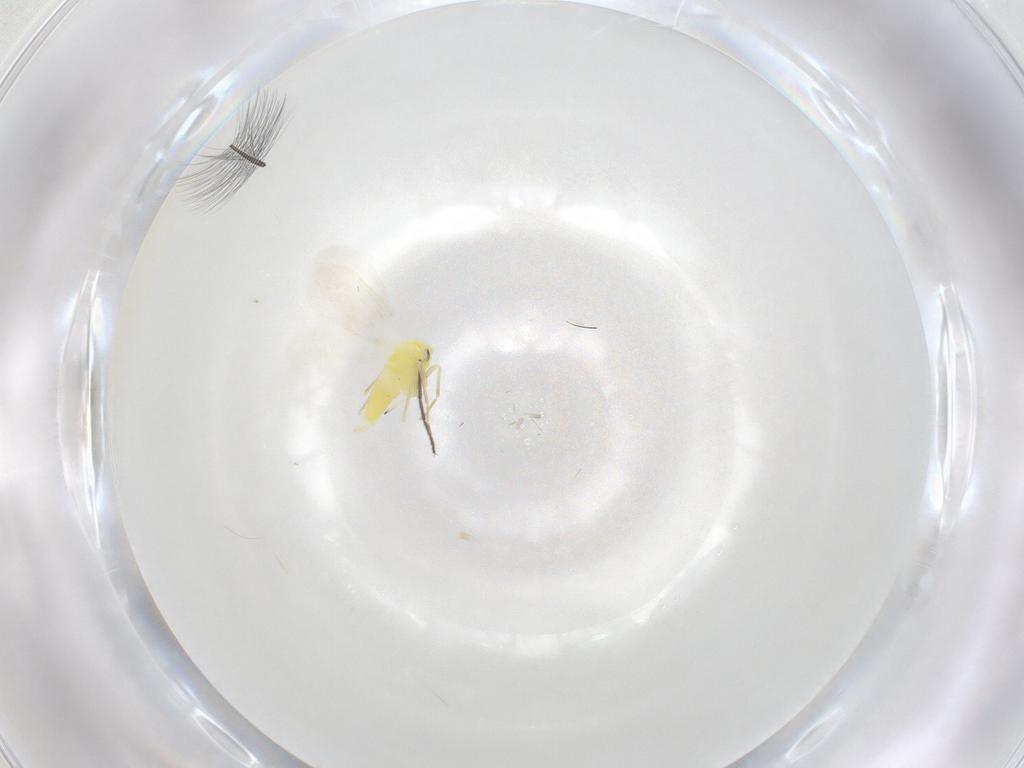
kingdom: Animalia
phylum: Arthropoda
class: Insecta
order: Hemiptera
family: Aleyrodidae
